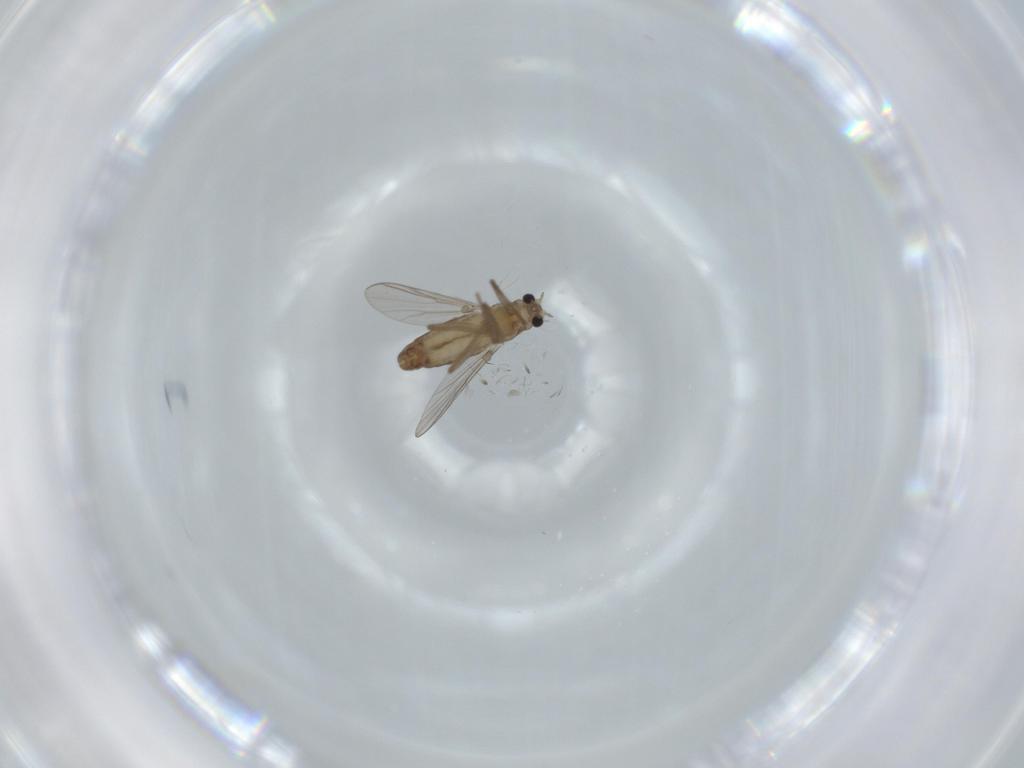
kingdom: Animalia
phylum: Arthropoda
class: Insecta
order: Diptera
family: Chironomidae
